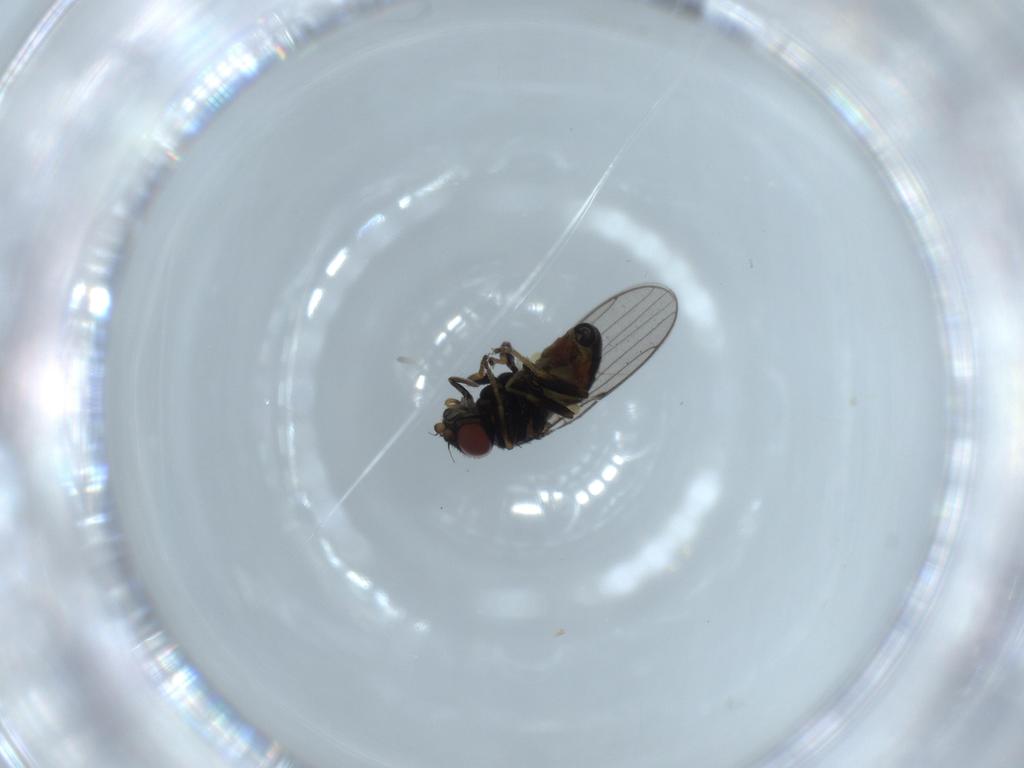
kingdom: Animalia
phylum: Arthropoda
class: Insecta
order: Diptera
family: Chloropidae
